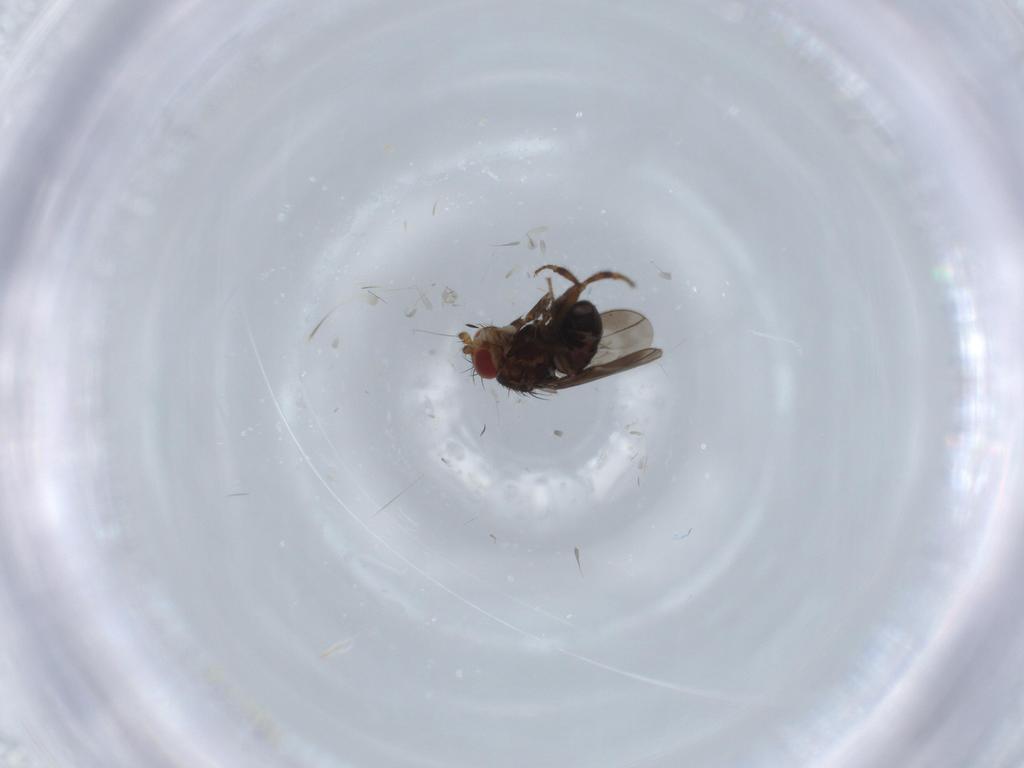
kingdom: Animalia
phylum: Arthropoda
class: Insecta
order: Diptera
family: Sphaeroceridae
